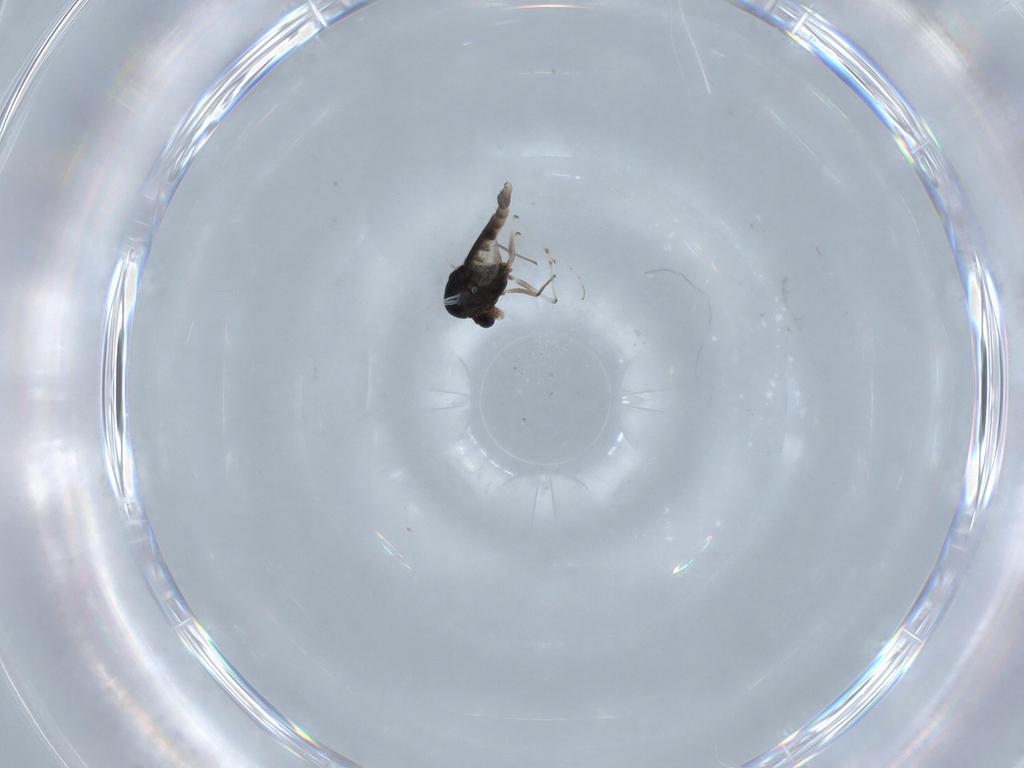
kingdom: Animalia
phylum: Arthropoda
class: Insecta
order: Diptera
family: Chironomidae
